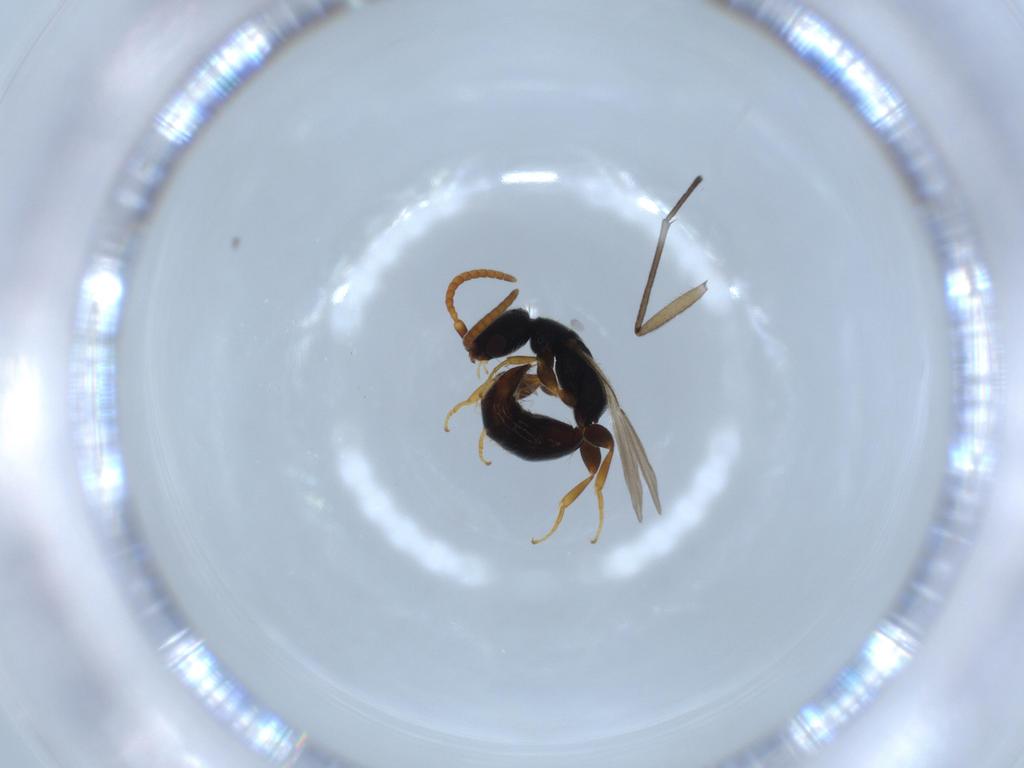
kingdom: Animalia
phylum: Arthropoda
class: Insecta
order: Hymenoptera
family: Bethylidae
